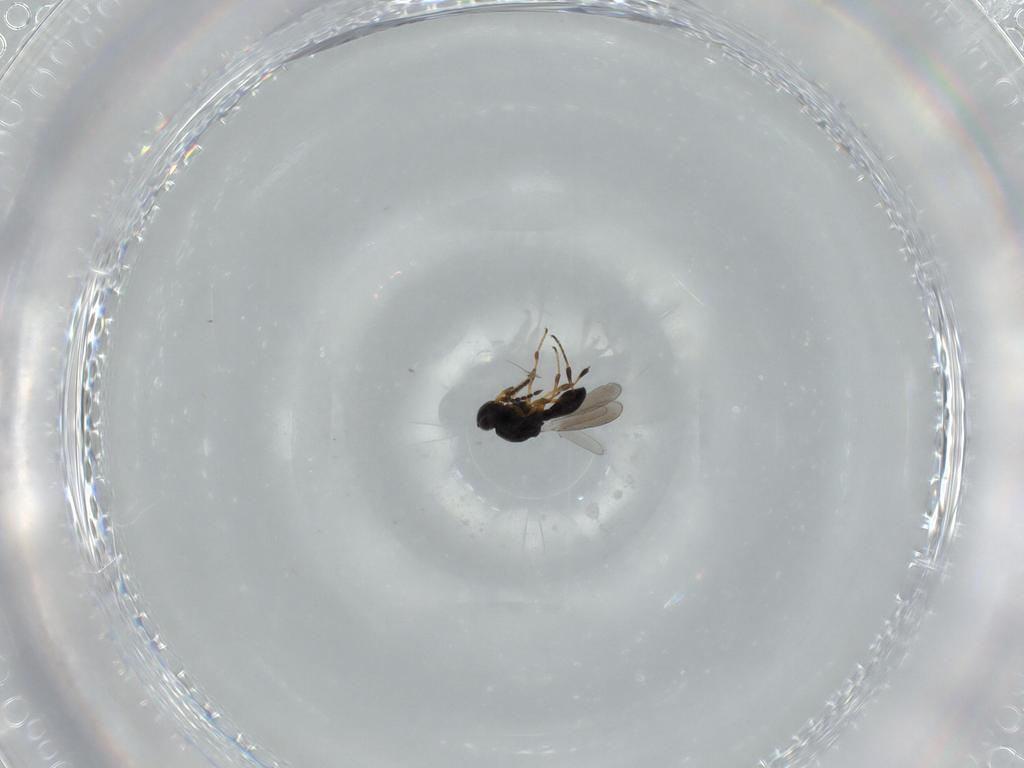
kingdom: Animalia
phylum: Arthropoda
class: Insecta
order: Hymenoptera
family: Platygastridae
